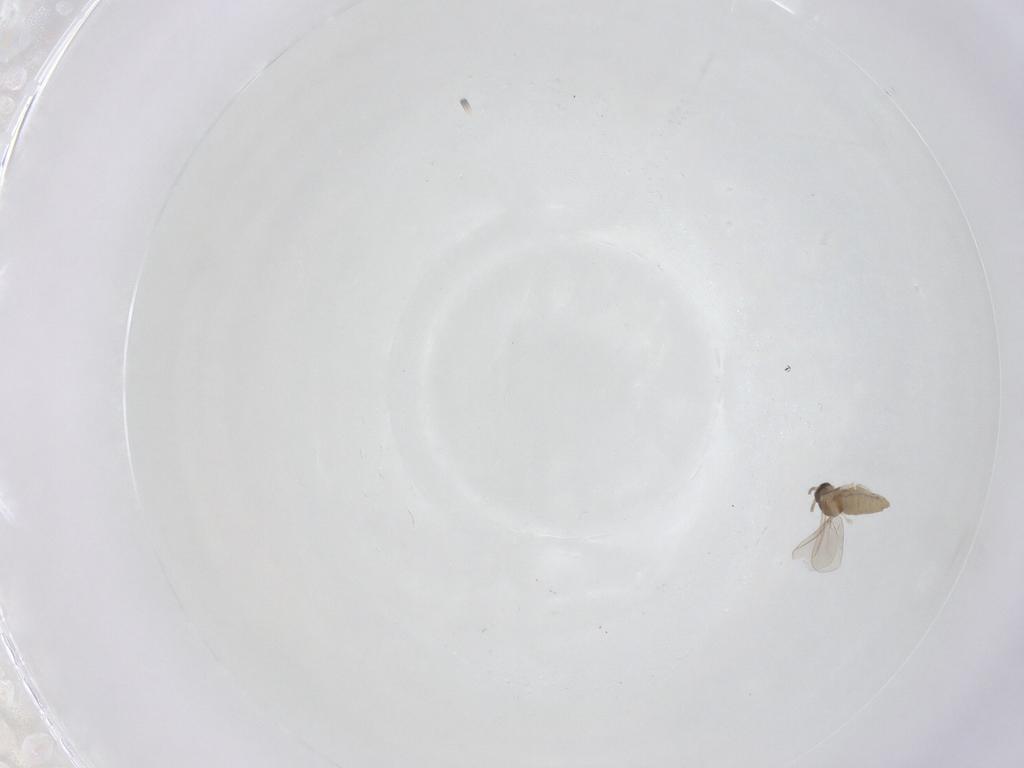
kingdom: Animalia
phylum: Arthropoda
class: Insecta
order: Diptera
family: Cecidomyiidae
